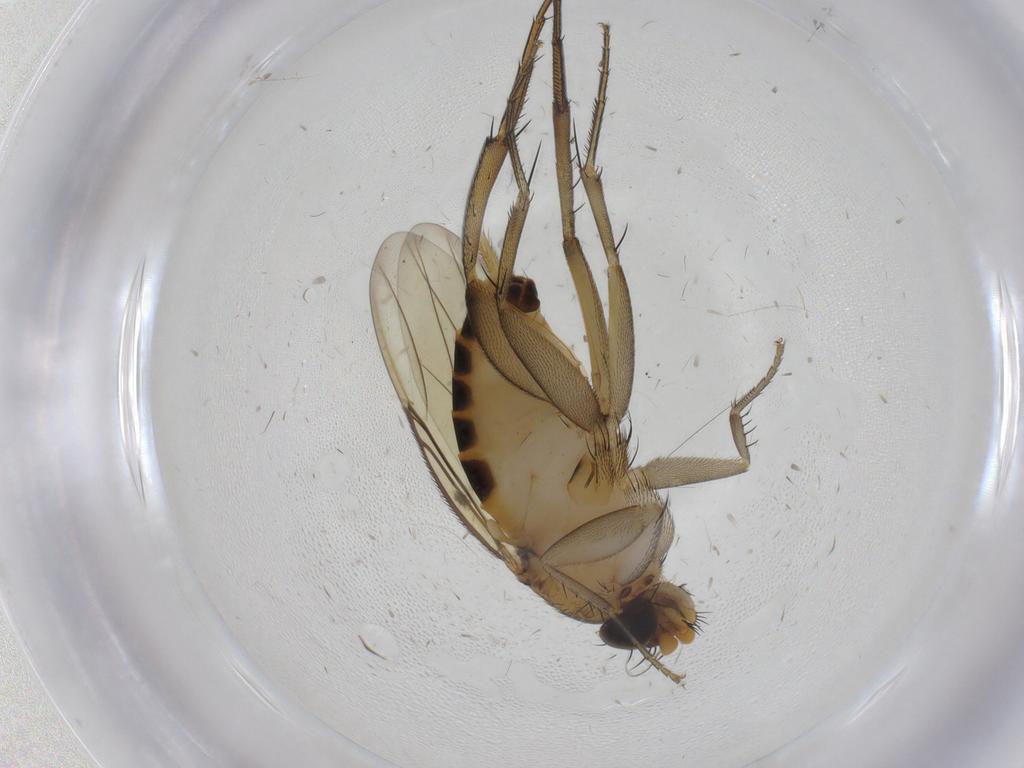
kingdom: Animalia
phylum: Arthropoda
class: Insecta
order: Diptera
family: Phoridae
